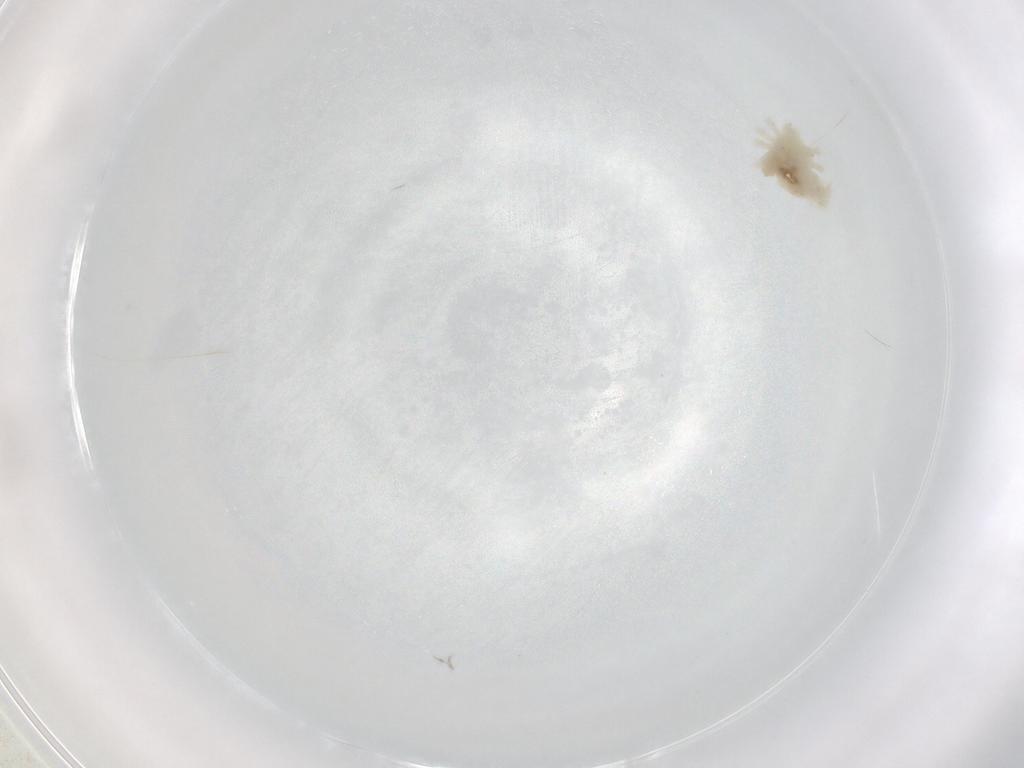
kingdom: Animalia
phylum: Arthropoda
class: Arachnida
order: Trombidiformes
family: Anystidae
